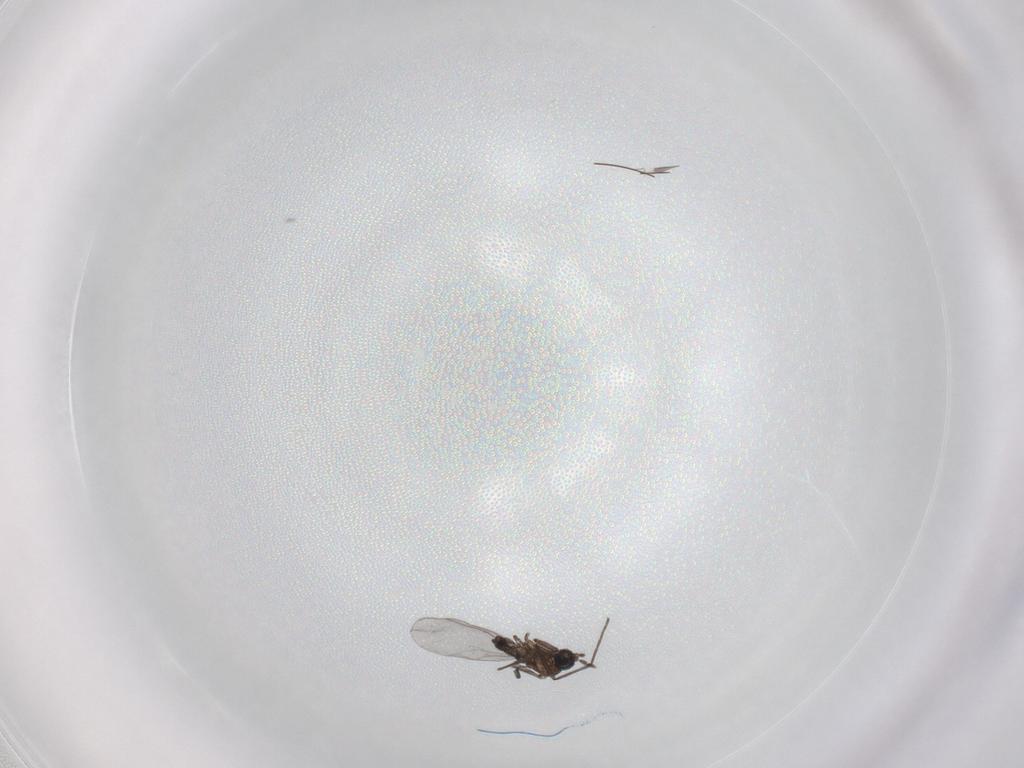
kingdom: Animalia
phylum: Arthropoda
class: Insecta
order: Diptera
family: Sciaridae
